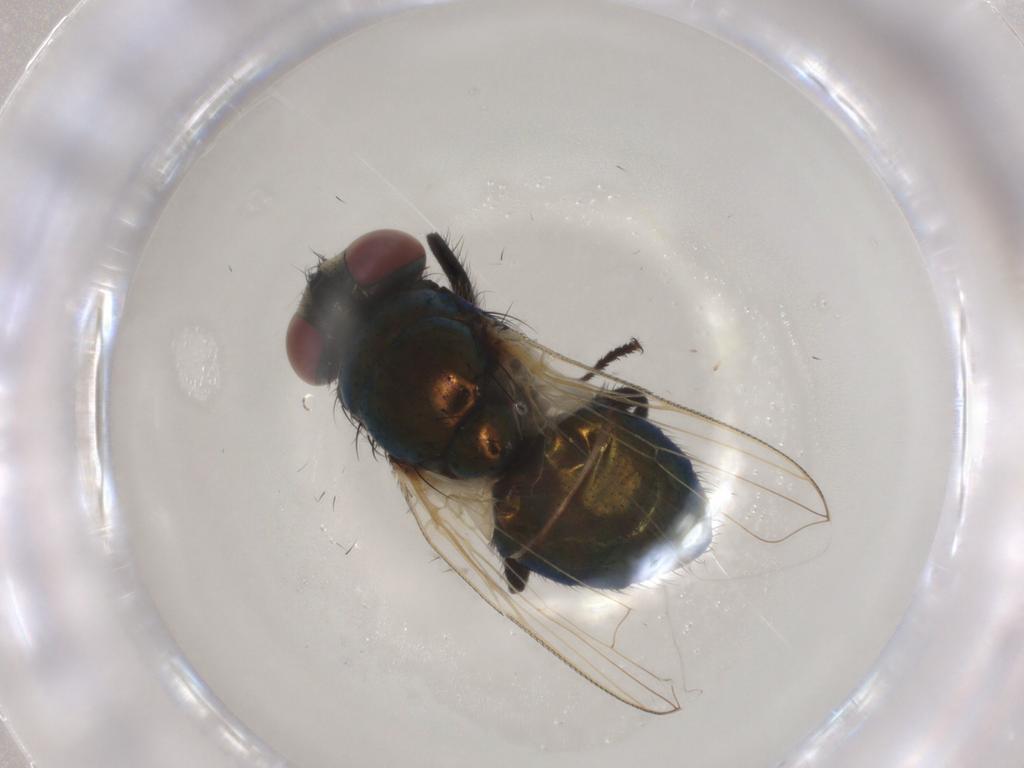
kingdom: Animalia
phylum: Arthropoda
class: Insecta
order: Diptera
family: Muscidae
